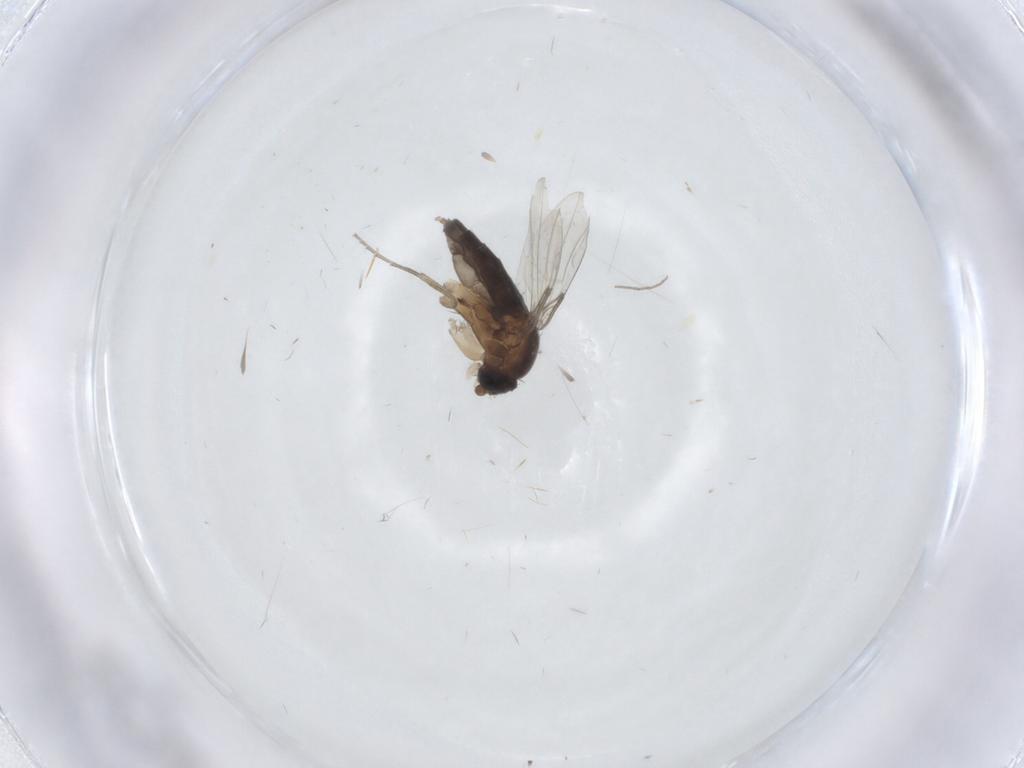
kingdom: Animalia
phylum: Arthropoda
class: Insecta
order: Diptera
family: Phoridae
